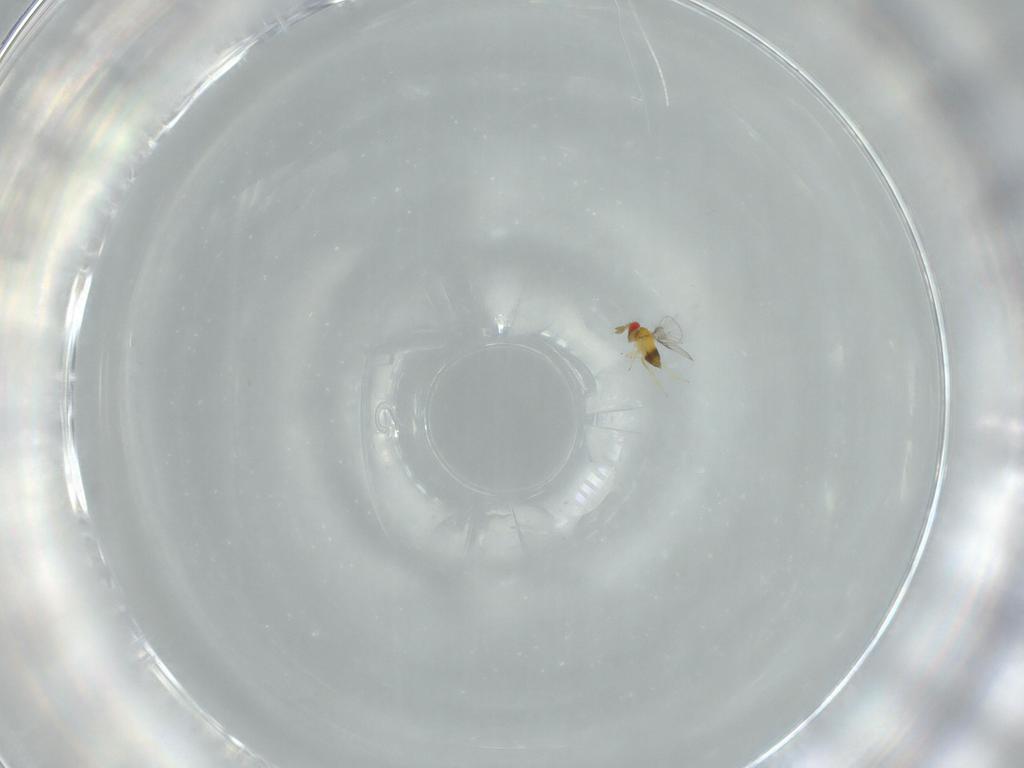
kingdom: Animalia
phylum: Arthropoda
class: Insecta
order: Hymenoptera
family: Trichogrammatidae
